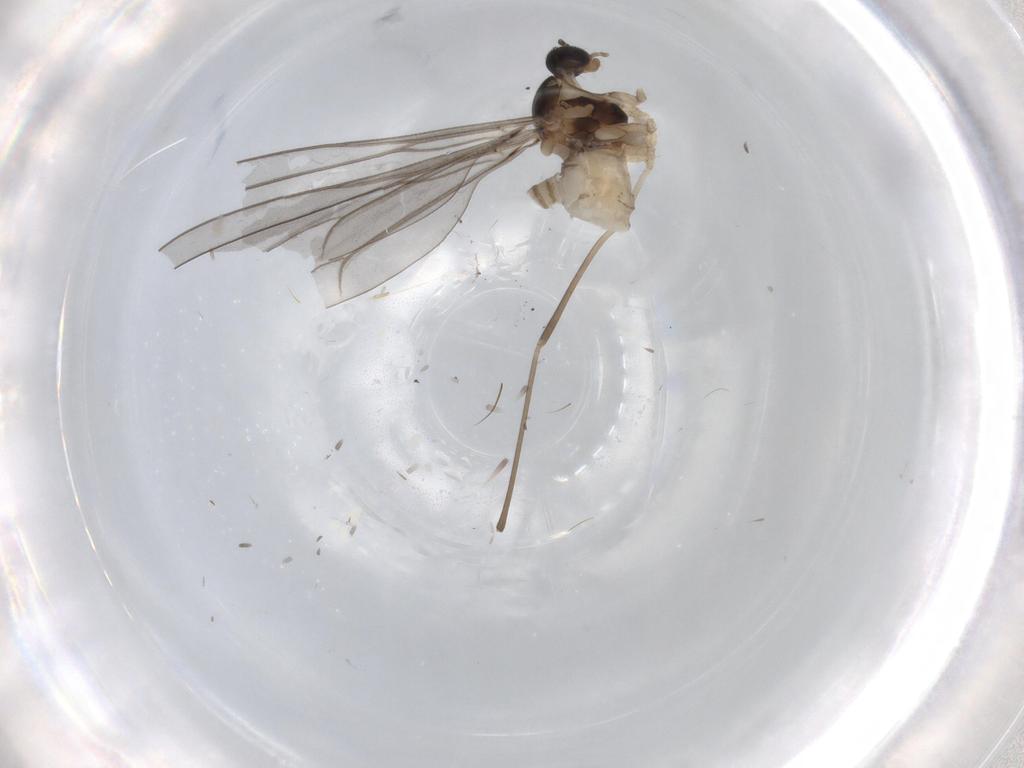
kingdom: Animalia
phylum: Arthropoda
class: Insecta
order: Diptera
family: Cecidomyiidae
